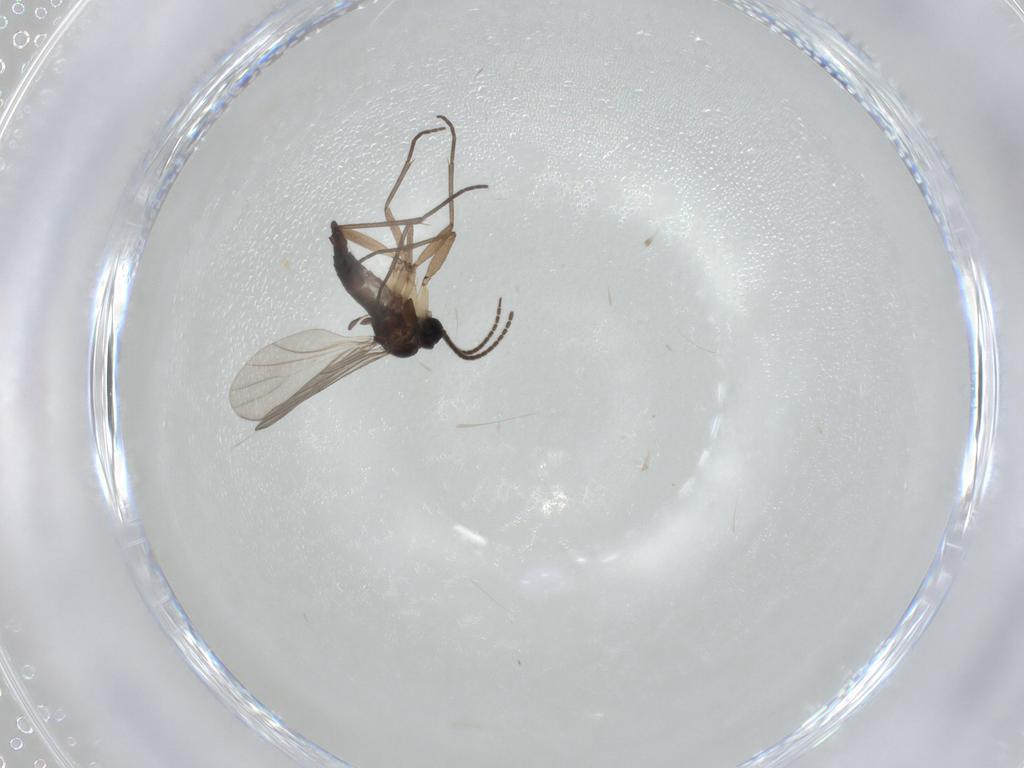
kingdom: Animalia
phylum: Arthropoda
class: Insecta
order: Diptera
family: Sciaridae
